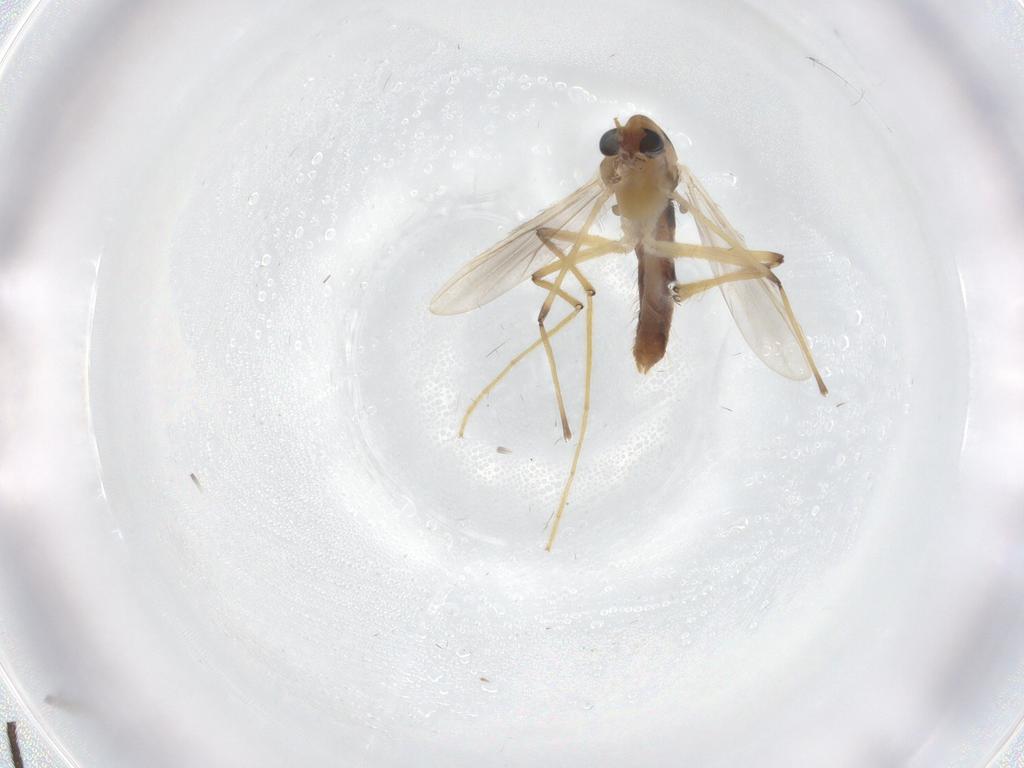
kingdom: Animalia
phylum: Arthropoda
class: Insecta
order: Diptera
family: Chironomidae
